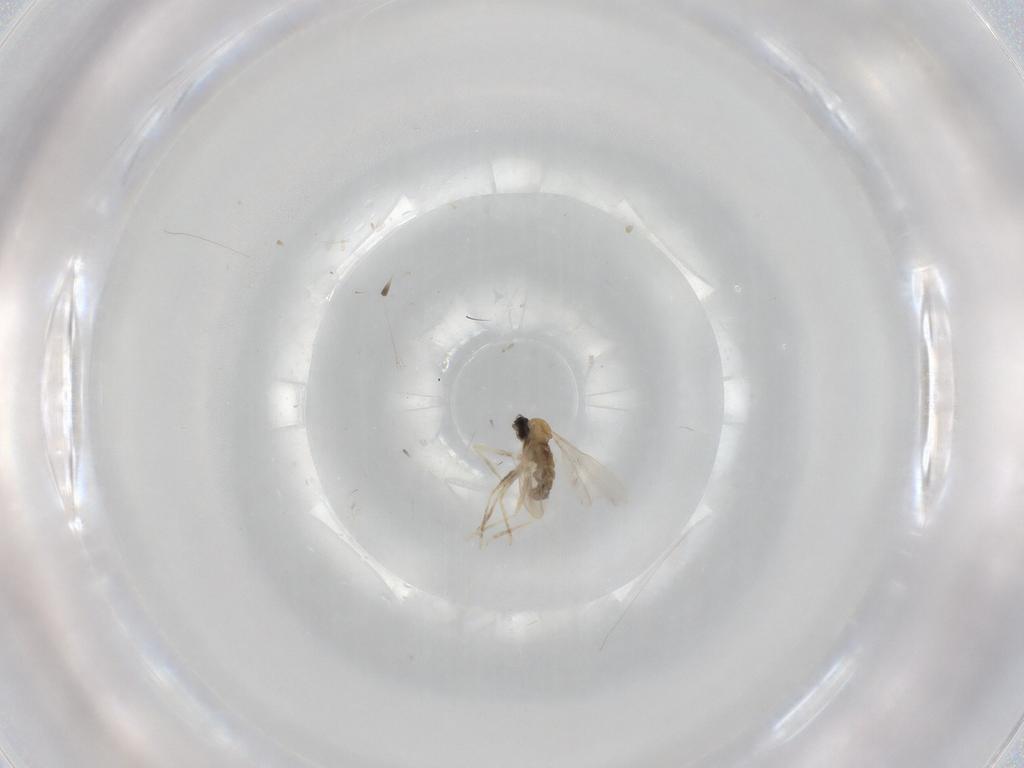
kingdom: Animalia
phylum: Arthropoda
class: Insecta
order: Diptera
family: Cecidomyiidae
